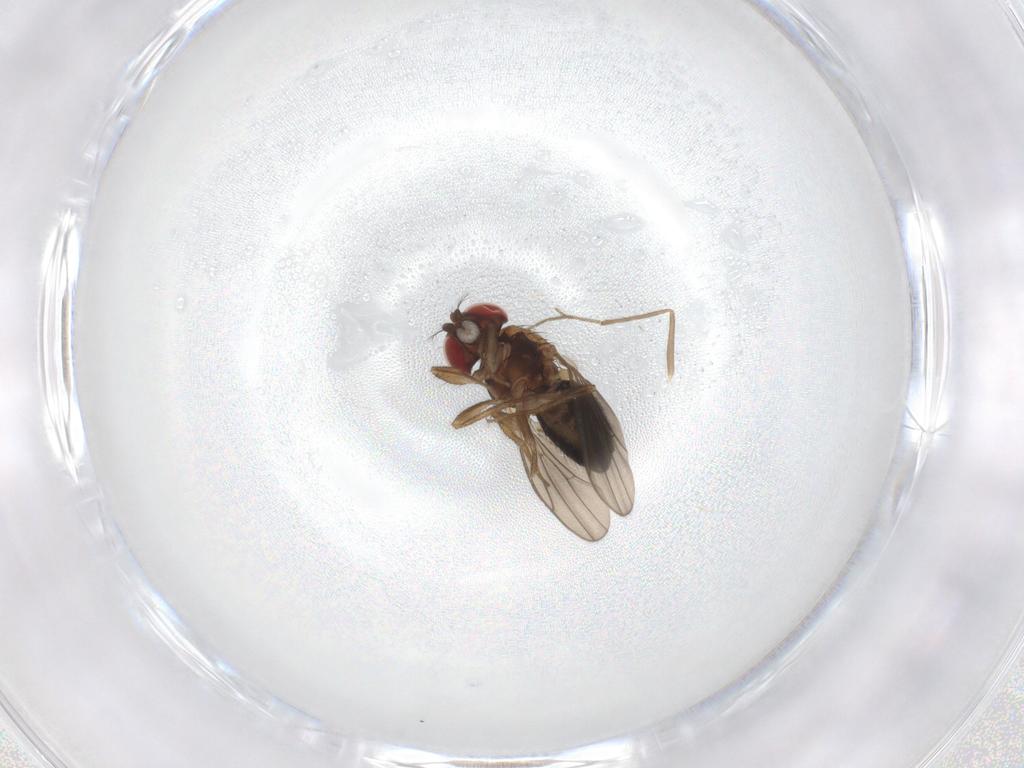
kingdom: Animalia
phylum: Arthropoda
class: Insecta
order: Diptera
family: Drosophilidae
